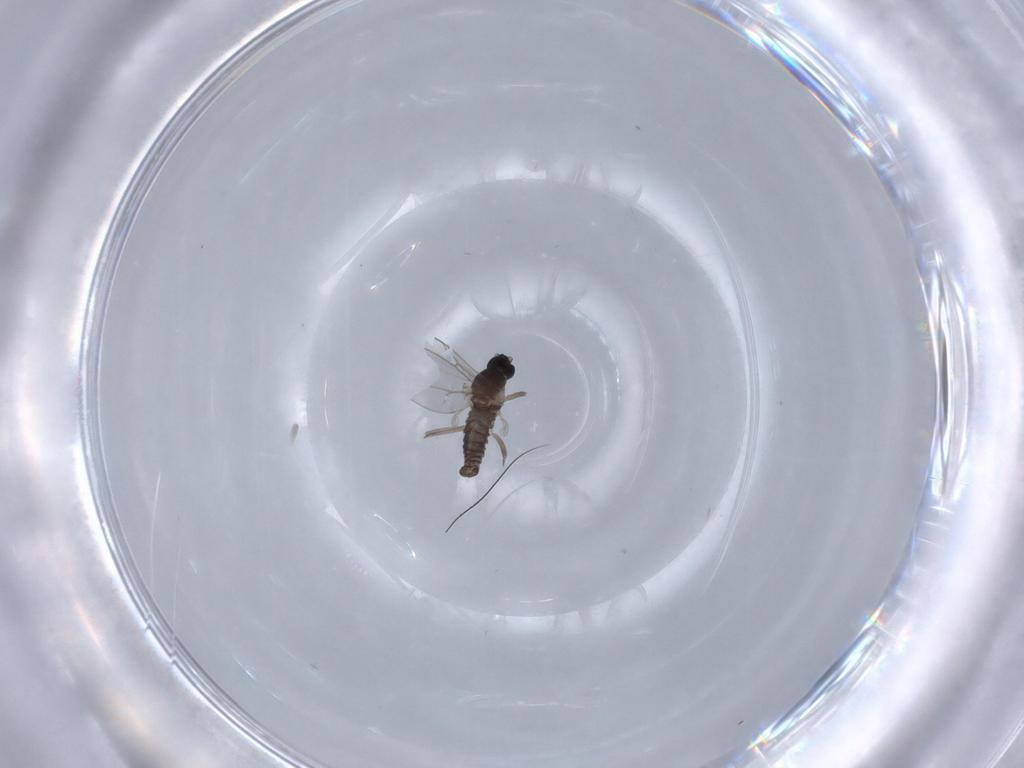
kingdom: Animalia
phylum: Arthropoda
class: Insecta
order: Diptera
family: Cecidomyiidae
